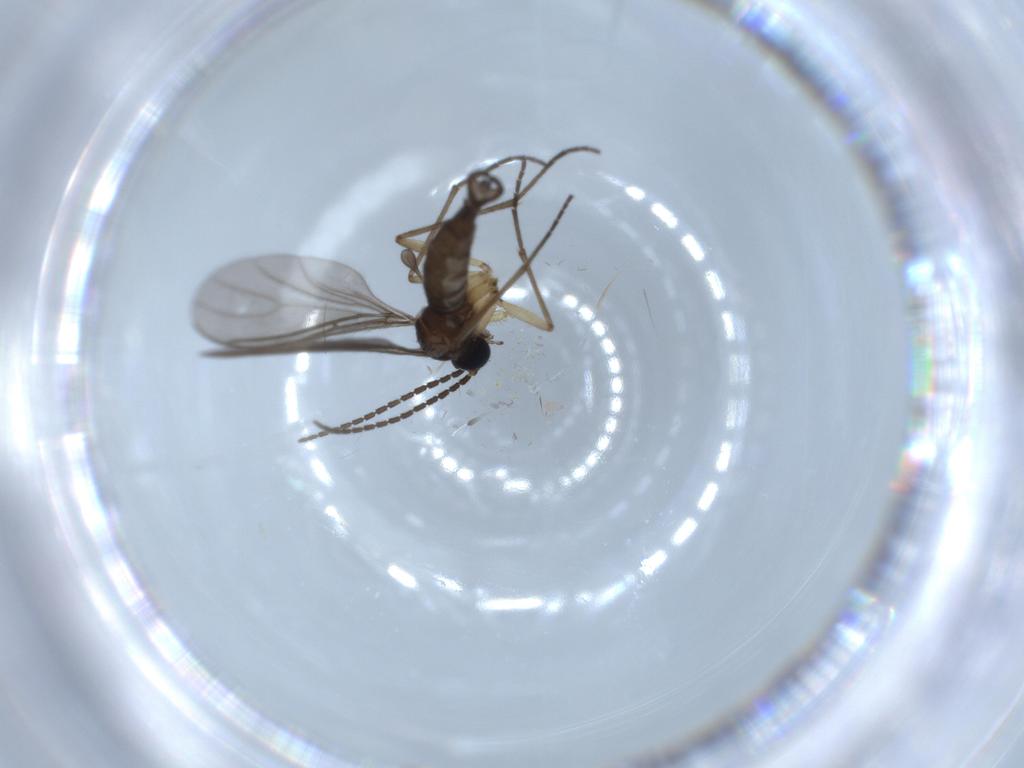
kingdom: Animalia
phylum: Arthropoda
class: Insecta
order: Diptera
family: Sciaridae
